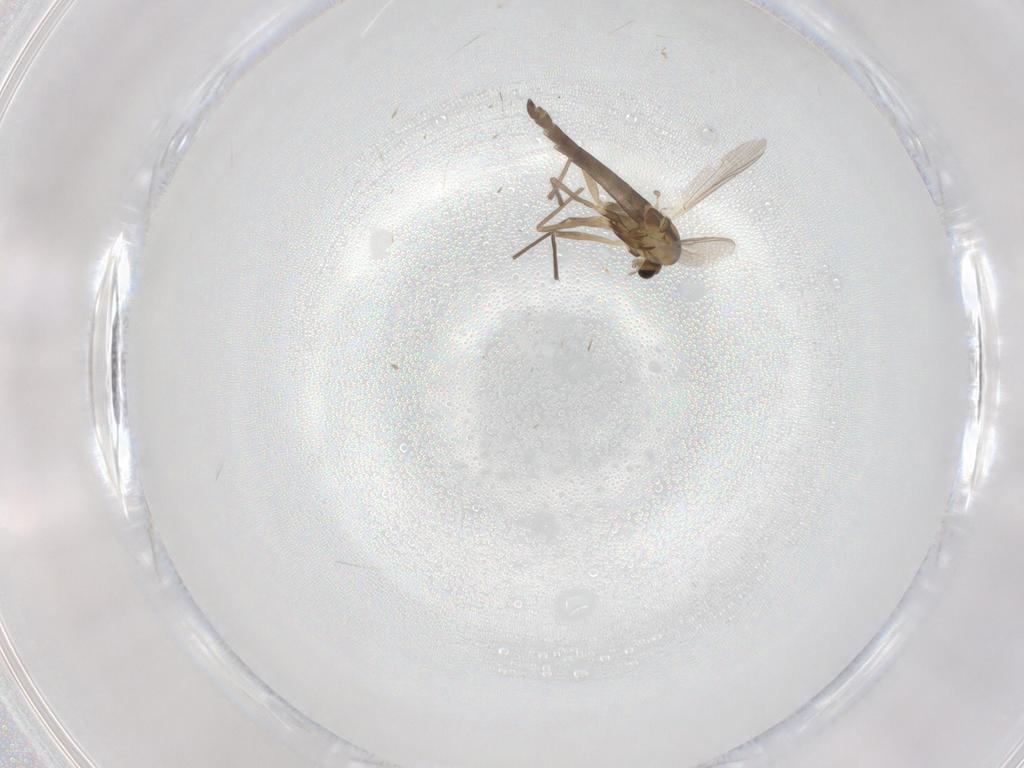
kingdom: Animalia
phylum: Arthropoda
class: Insecta
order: Diptera
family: Chironomidae
